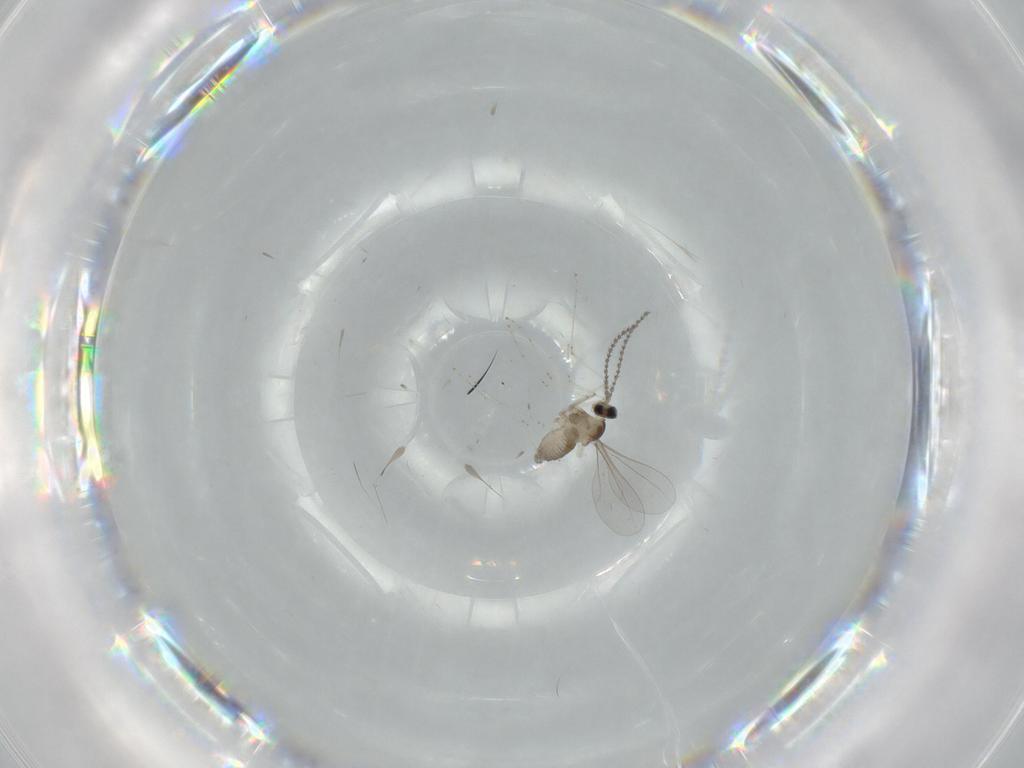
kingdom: Animalia
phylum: Arthropoda
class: Insecta
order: Diptera
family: Cecidomyiidae
